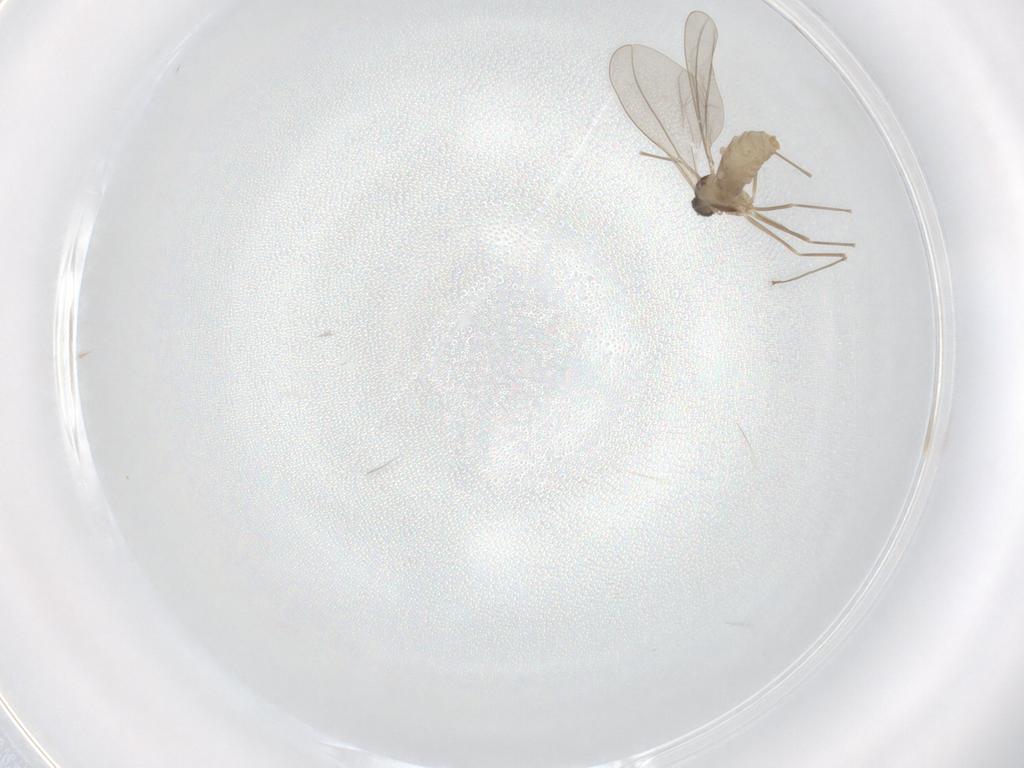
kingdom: Animalia
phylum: Arthropoda
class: Insecta
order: Diptera
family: Cecidomyiidae
